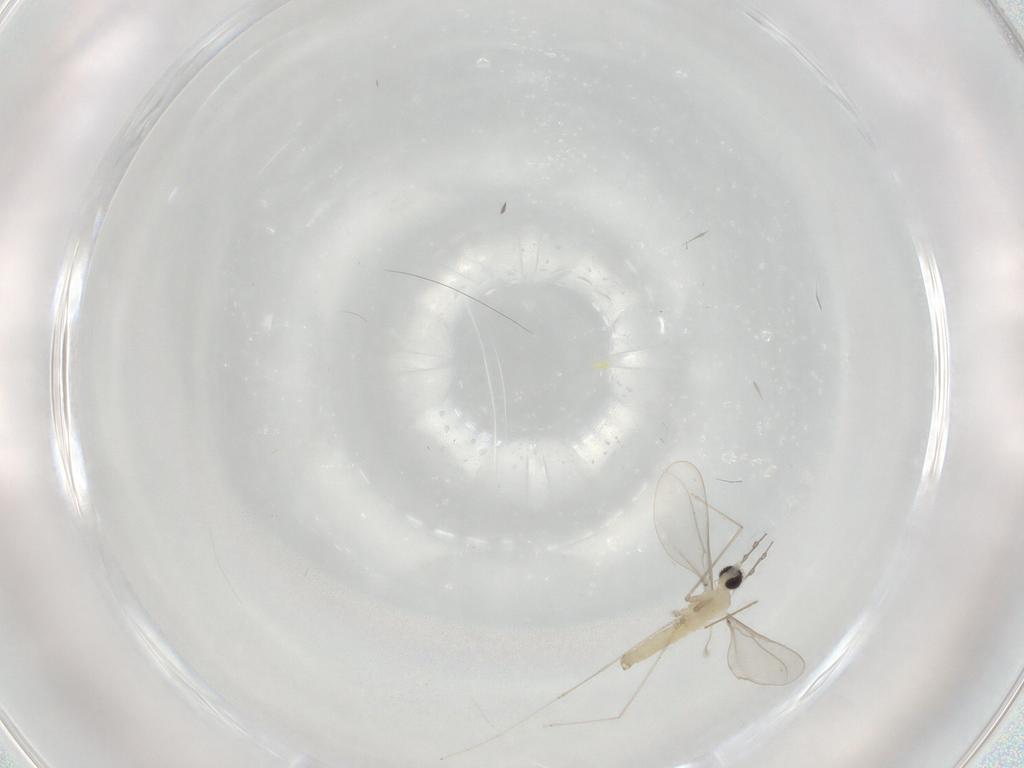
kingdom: Animalia
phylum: Arthropoda
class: Insecta
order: Diptera
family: Cecidomyiidae
